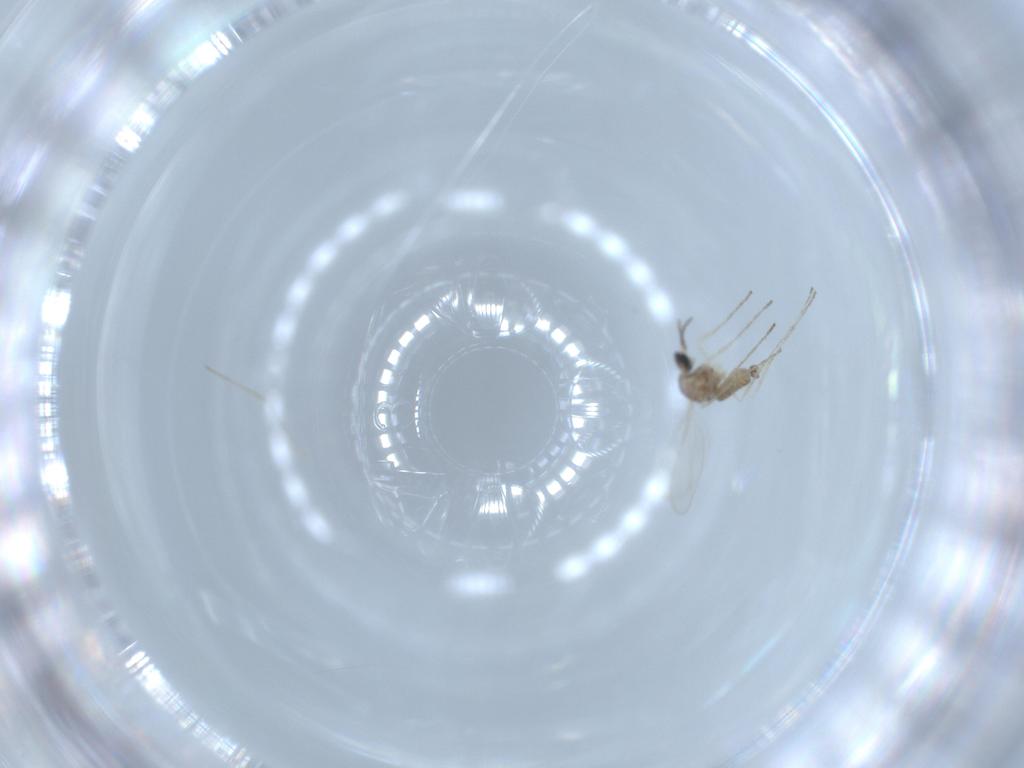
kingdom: Animalia
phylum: Arthropoda
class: Insecta
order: Diptera
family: Cecidomyiidae
